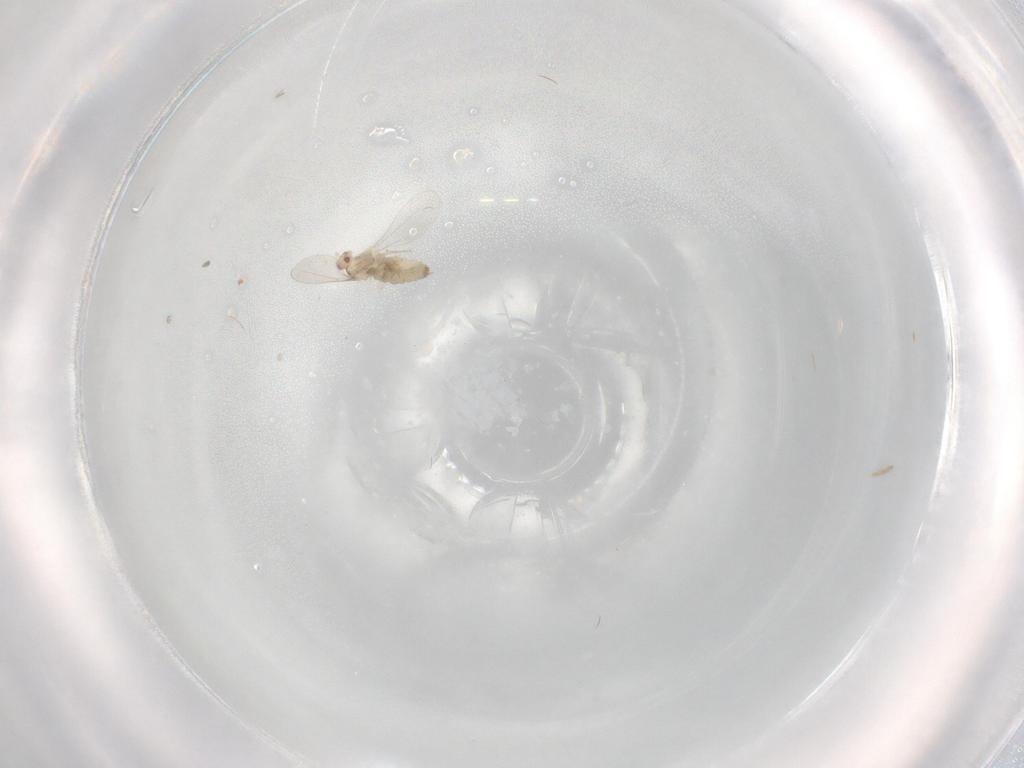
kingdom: Animalia
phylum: Arthropoda
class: Insecta
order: Diptera
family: Cecidomyiidae
